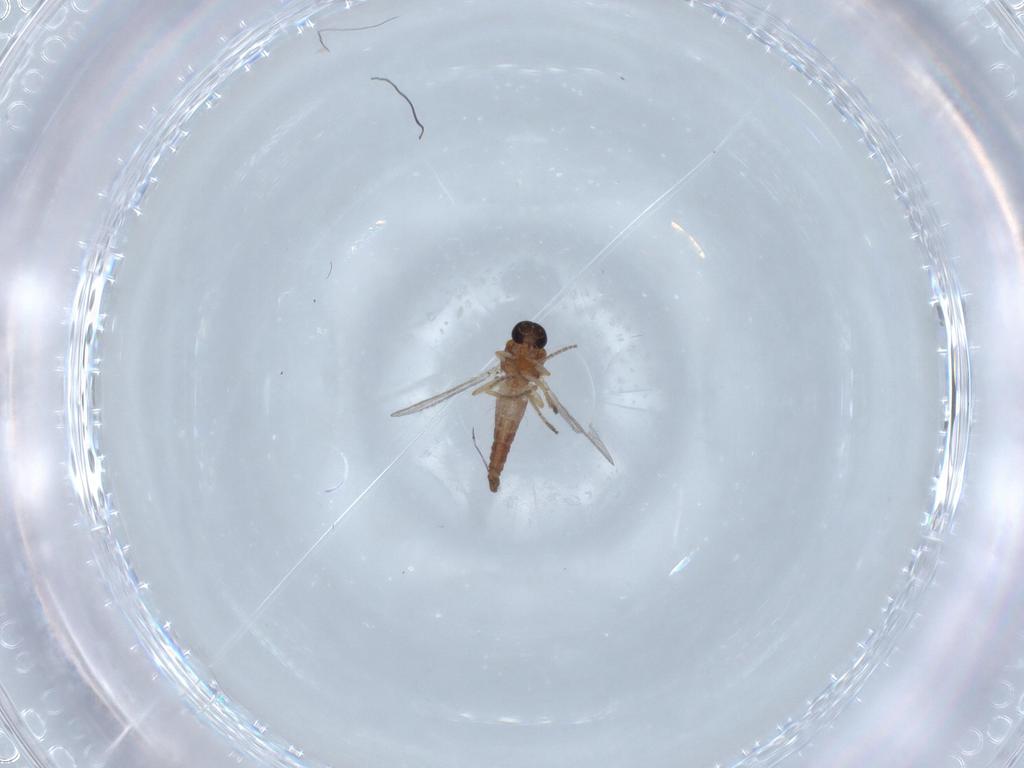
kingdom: Animalia
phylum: Arthropoda
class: Insecta
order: Diptera
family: Ceratopogonidae
